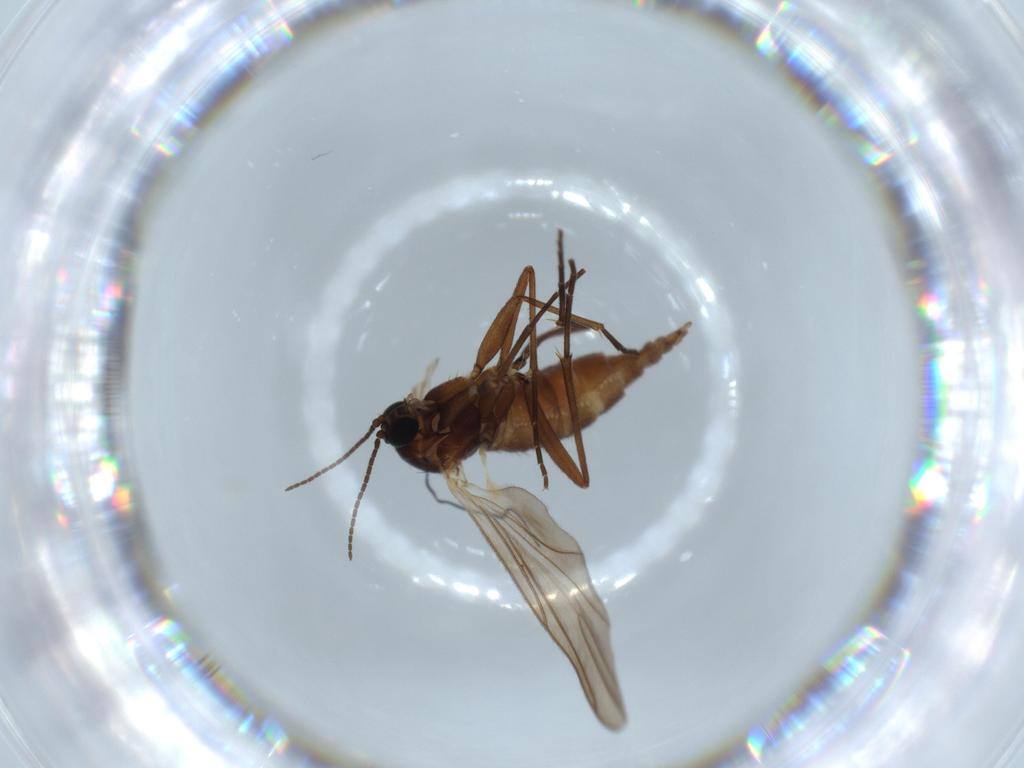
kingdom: Animalia
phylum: Arthropoda
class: Insecta
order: Diptera
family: Sciaridae
